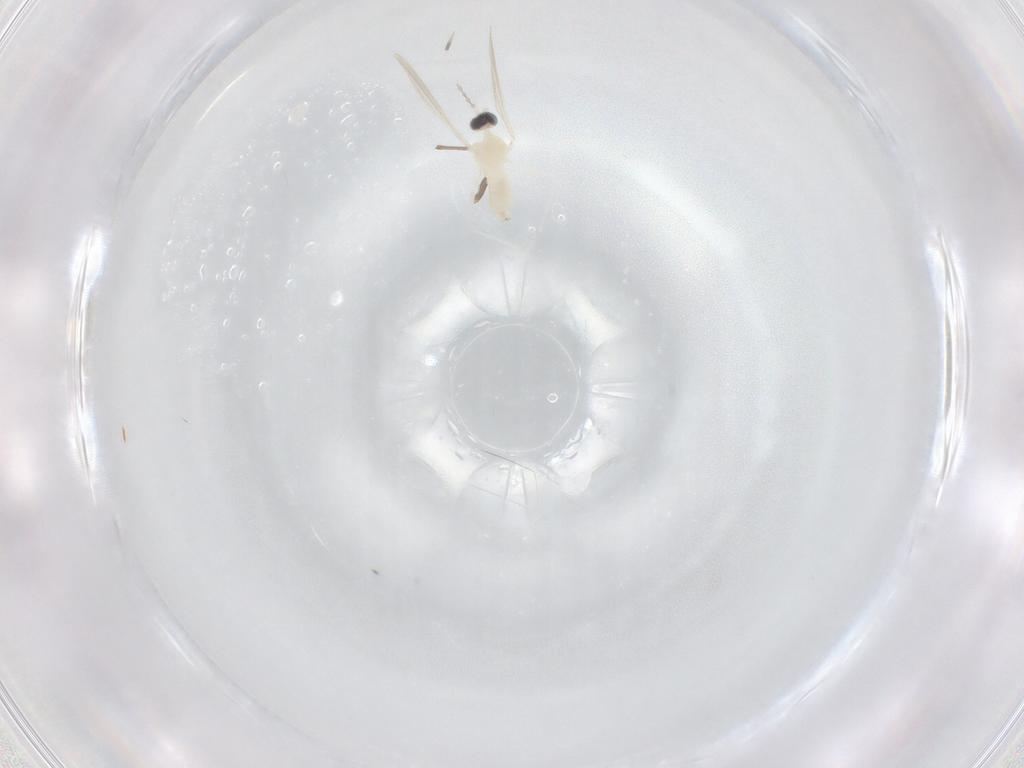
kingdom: Animalia
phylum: Arthropoda
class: Insecta
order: Diptera
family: Cecidomyiidae
